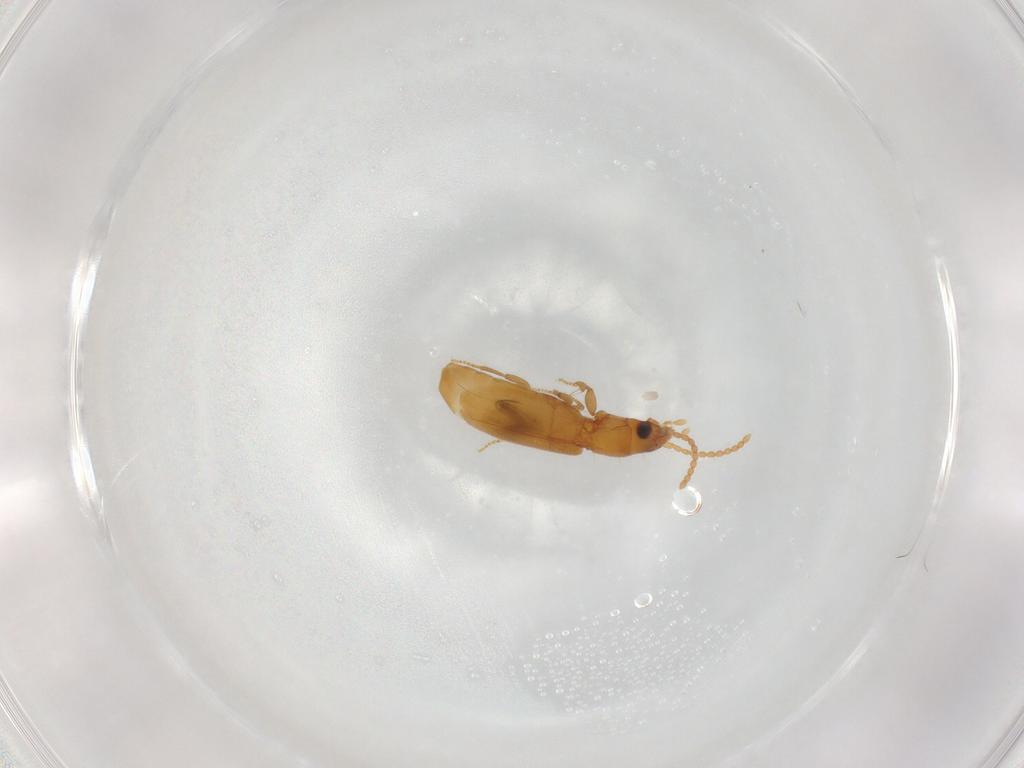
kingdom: Animalia
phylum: Arthropoda
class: Insecta
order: Coleoptera
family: Carabidae
